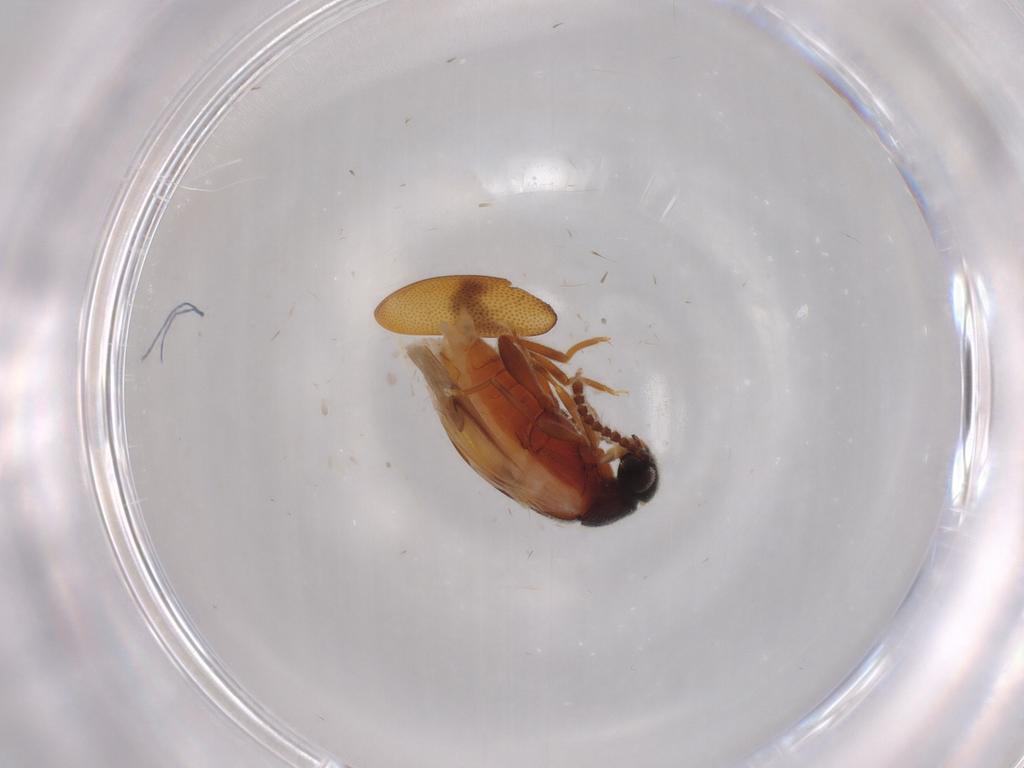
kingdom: Animalia
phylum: Arthropoda
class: Insecta
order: Coleoptera
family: Aderidae
